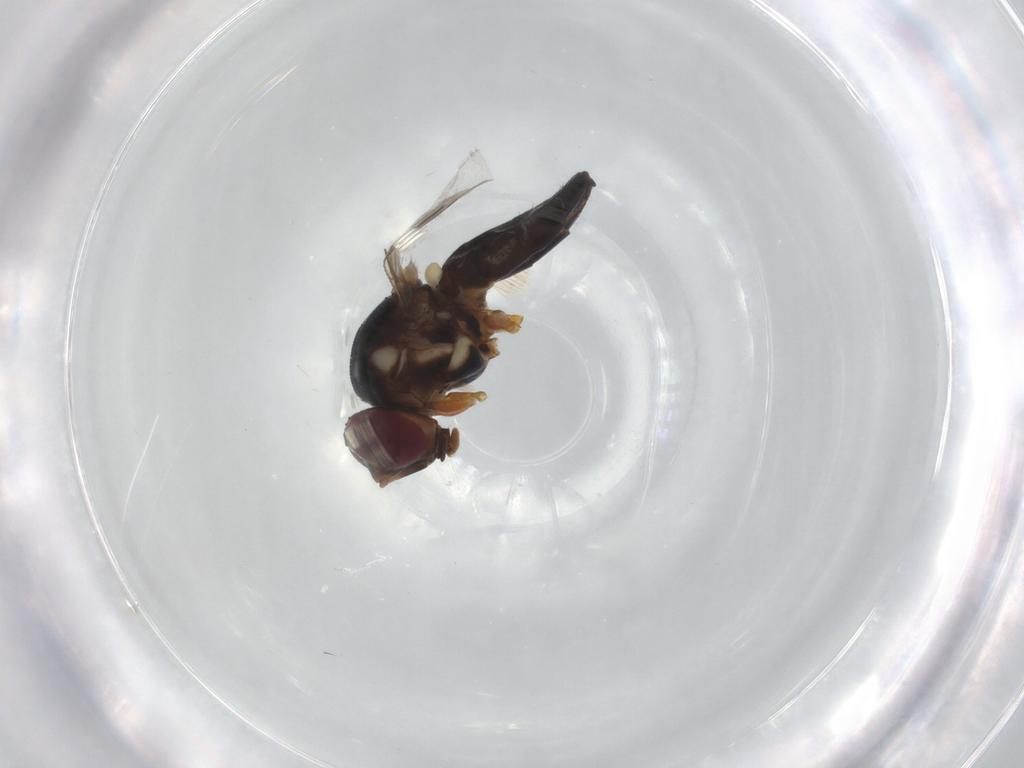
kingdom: Animalia
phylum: Arthropoda
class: Insecta
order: Diptera
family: Chloropidae
